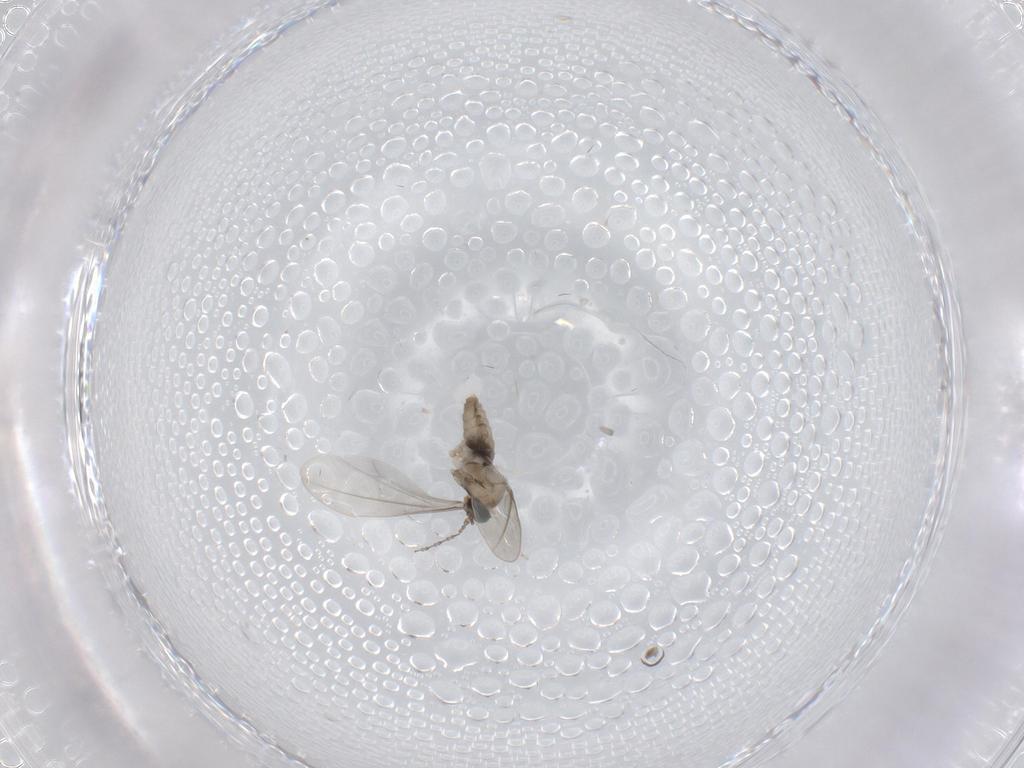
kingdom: Animalia
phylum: Arthropoda
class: Insecta
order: Diptera
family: Cecidomyiidae
